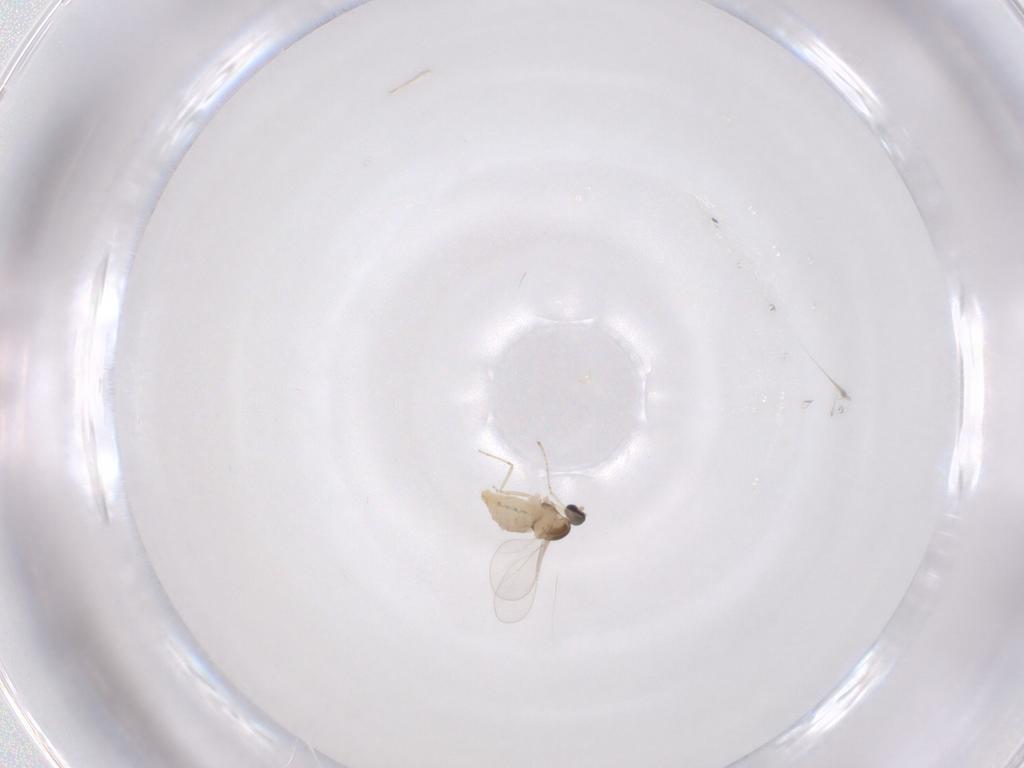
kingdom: Animalia
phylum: Arthropoda
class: Insecta
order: Diptera
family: Cecidomyiidae
